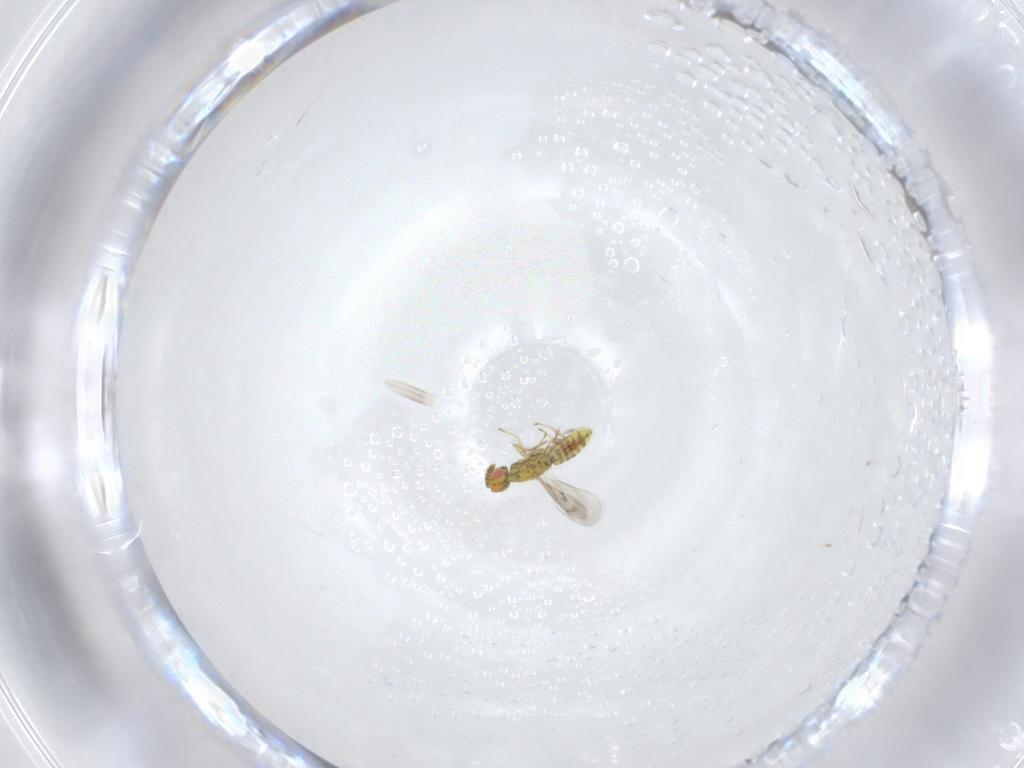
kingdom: Animalia
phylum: Arthropoda
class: Insecta
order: Hymenoptera
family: Eulophidae
